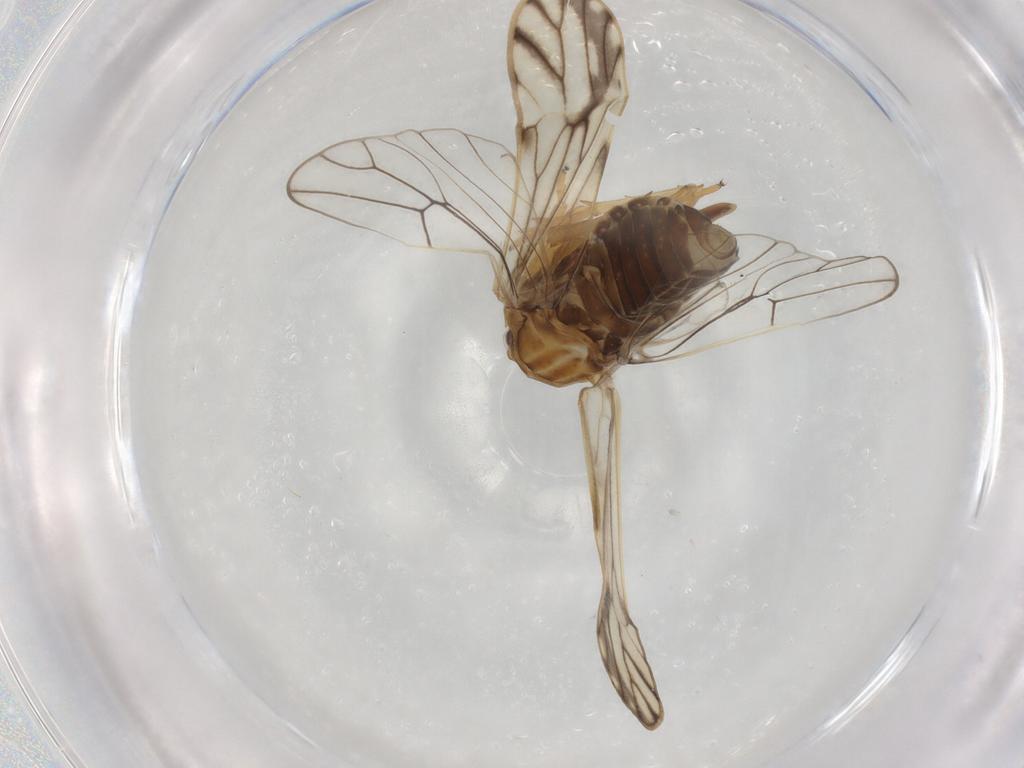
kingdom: Animalia
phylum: Arthropoda
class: Insecta
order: Hemiptera
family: Delphacidae
